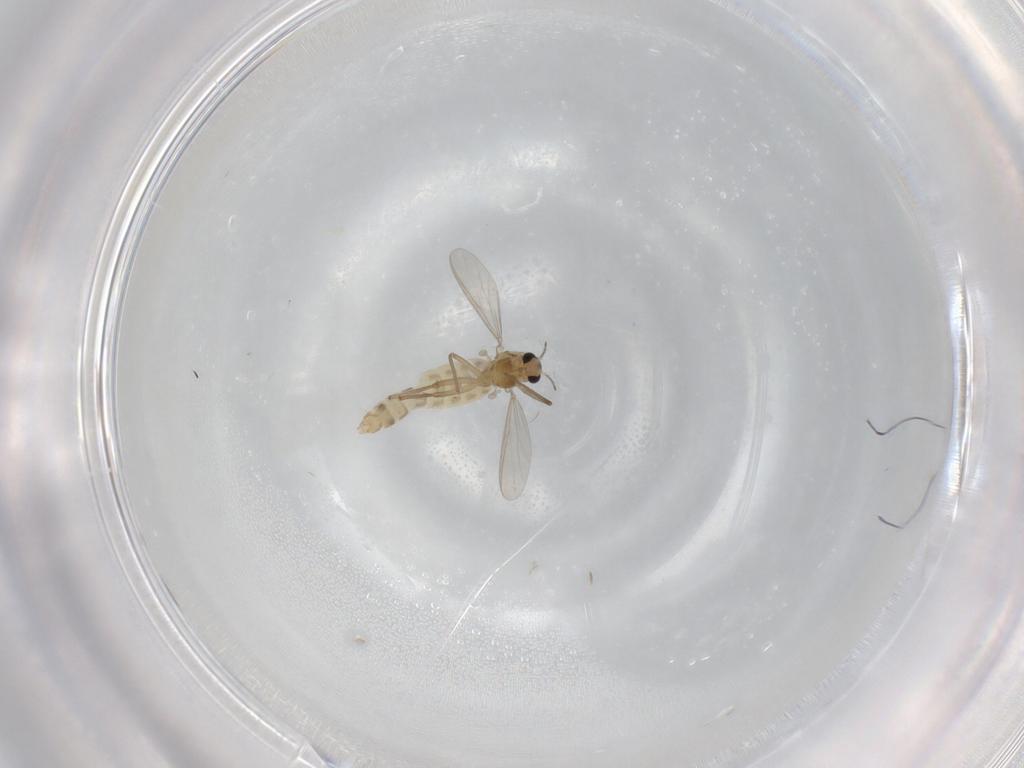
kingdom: Animalia
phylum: Arthropoda
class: Insecta
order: Diptera
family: Chironomidae
